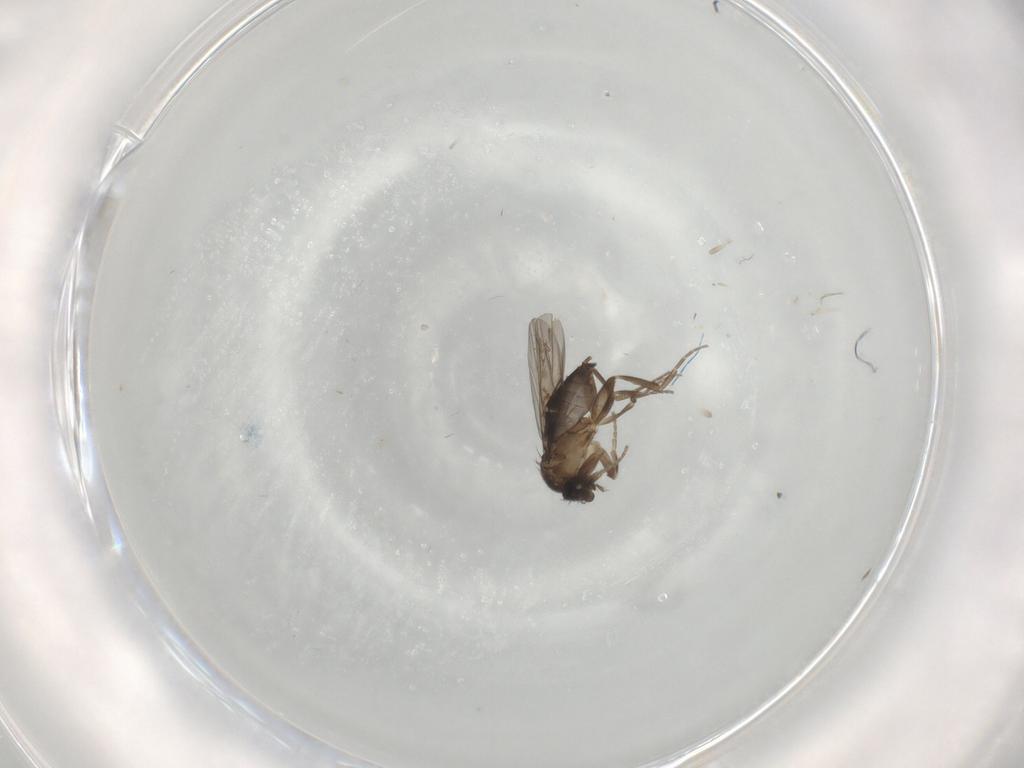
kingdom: Animalia
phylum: Arthropoda
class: Insecta
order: Diptera
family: Phoridae
